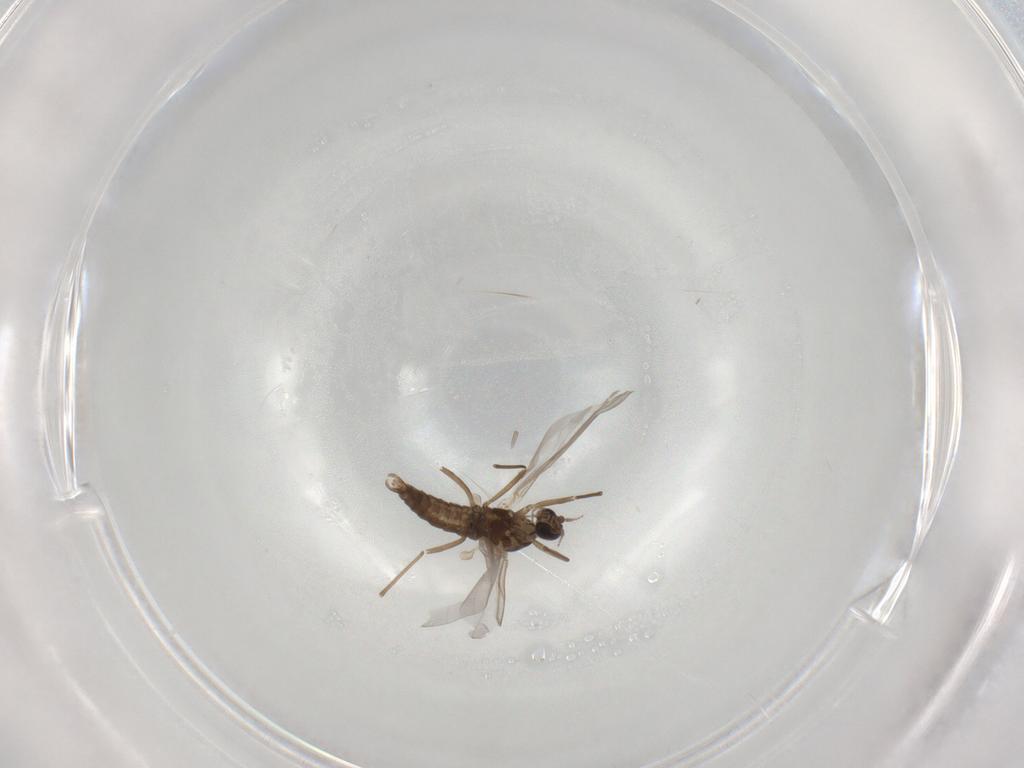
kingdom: Animalia
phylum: Arthropoda
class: Insecta
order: Diptera
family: Cecidomyiidae
